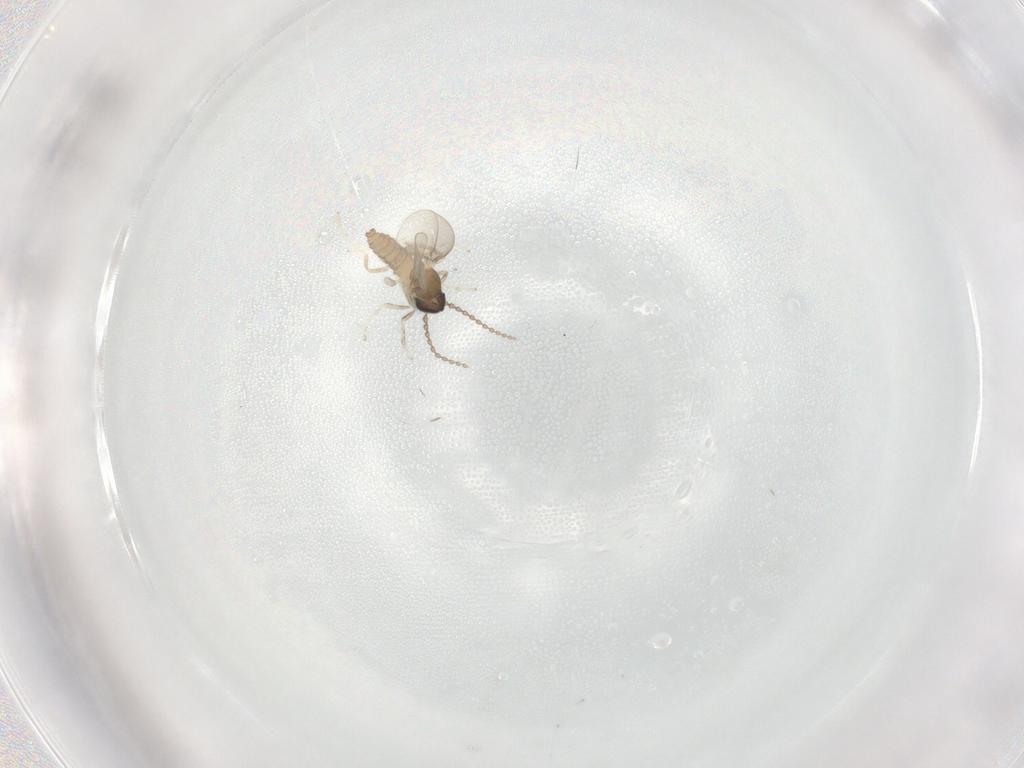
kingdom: Animalia
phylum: Arthropoda
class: Insecta
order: Diptera
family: Cecidomyiidae
